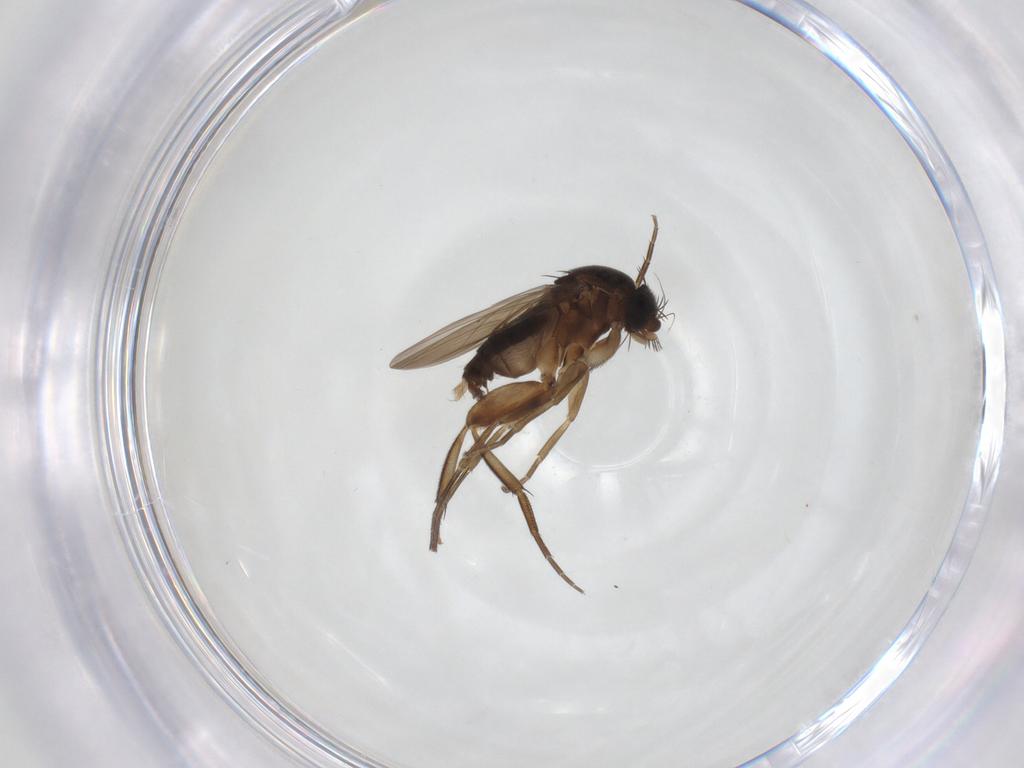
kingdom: Animalia
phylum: Arthropoda
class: Insecta
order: Diptera
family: Phoridae
